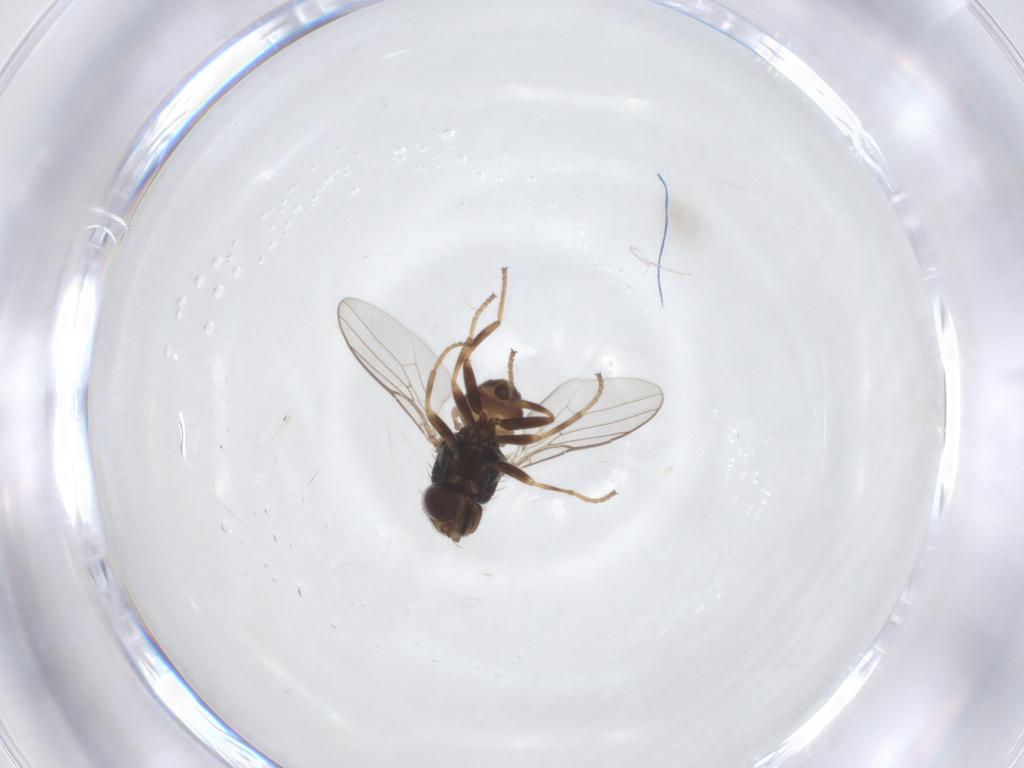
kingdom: Animalia
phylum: Arthropoda
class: Insecta
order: Diptera
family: Chloropidae
